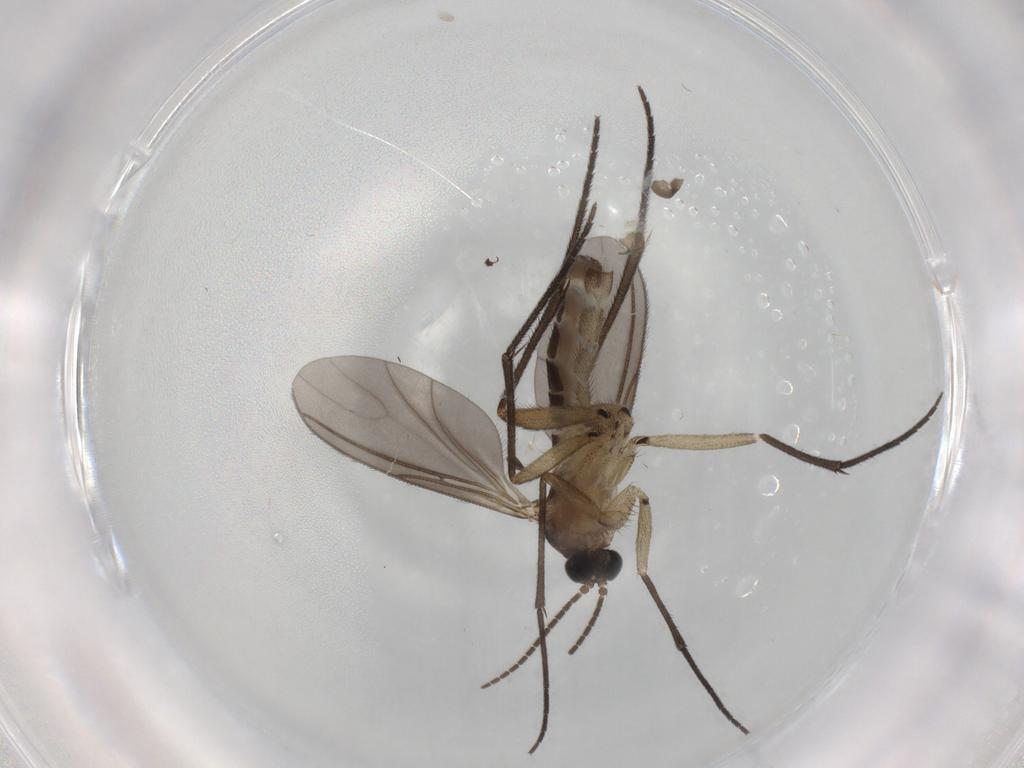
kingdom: Animalia
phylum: Arthropoda
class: Insecta
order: Diptera
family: Sciaridae
